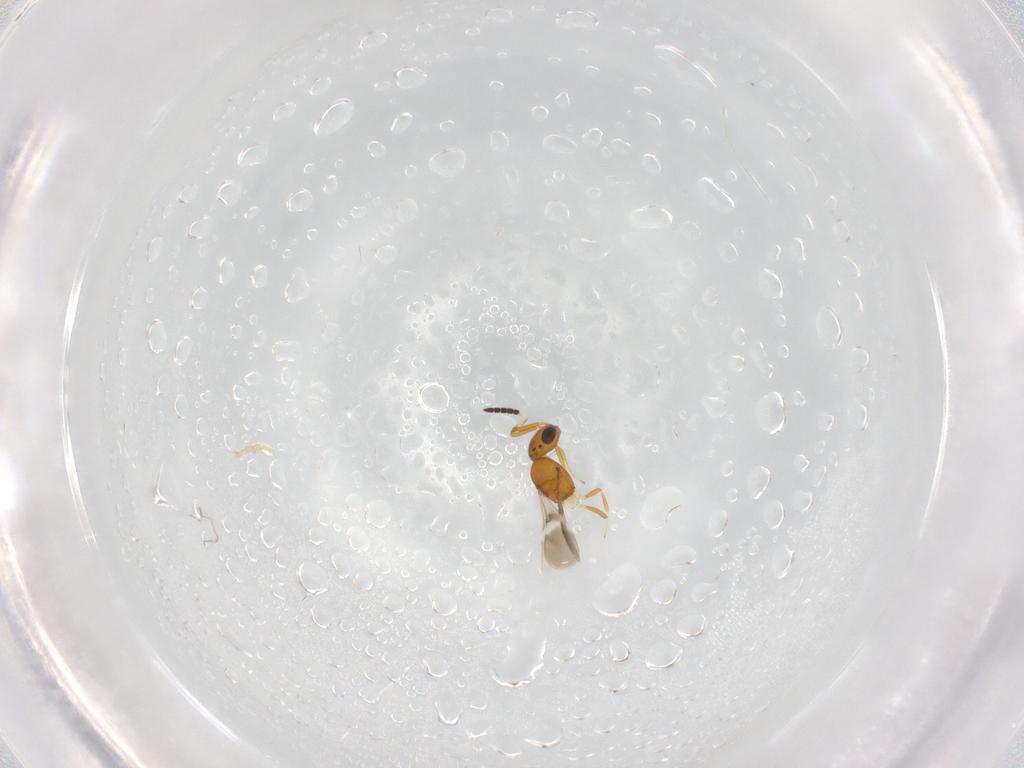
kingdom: Animalia
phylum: Arthropoda
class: Insecta
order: Hymenoptera
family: Scelionidae
